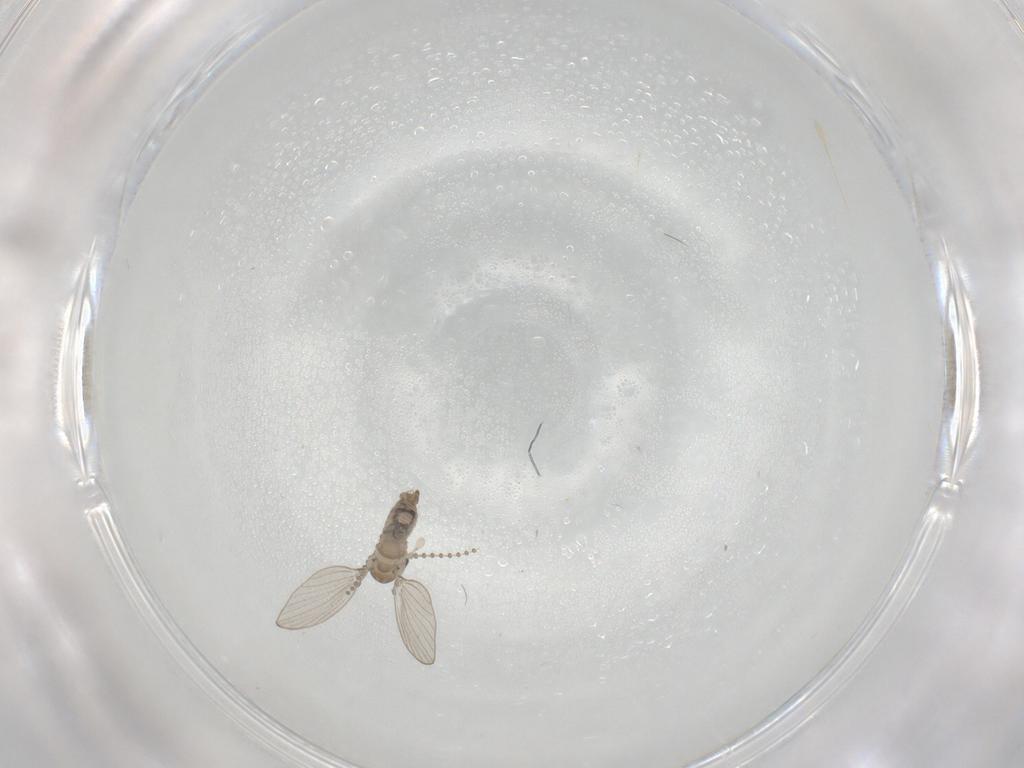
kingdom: Animalia
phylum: Arthropoda
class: Insecta
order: Diptera
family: Psychodidae
